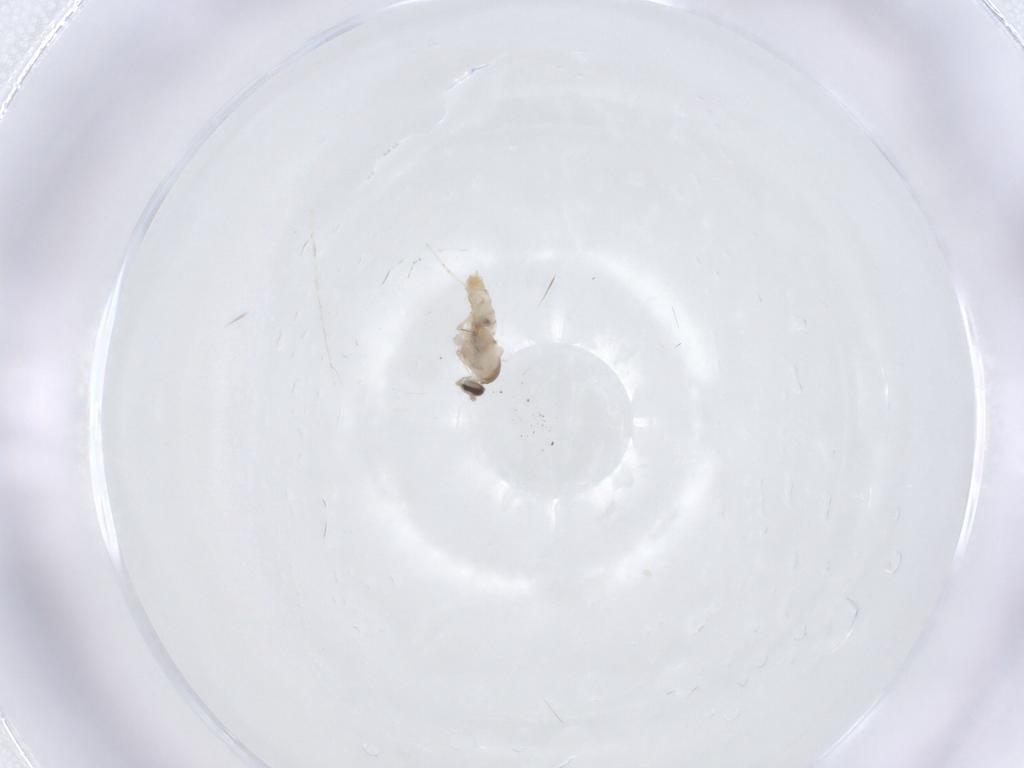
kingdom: Animalia
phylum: Arthropoda
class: Insecta
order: Diptera
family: Cecidomyiidae
